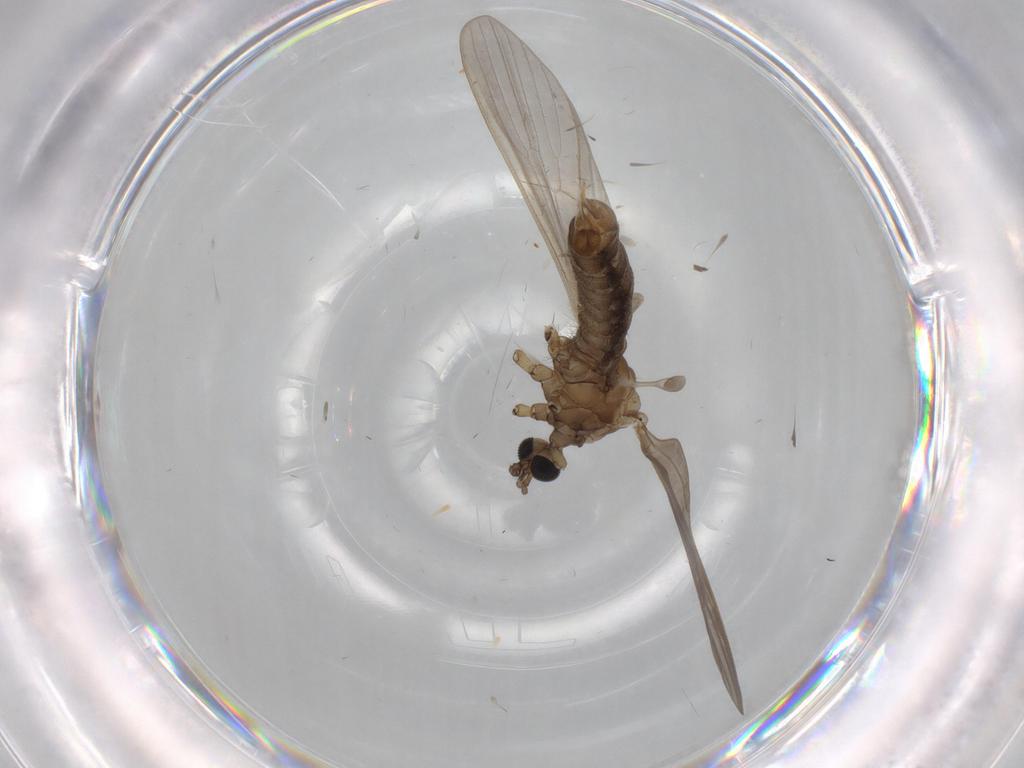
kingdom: Animalia
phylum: Arthropoda
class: Insecta
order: Diptera
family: Limoniidae
